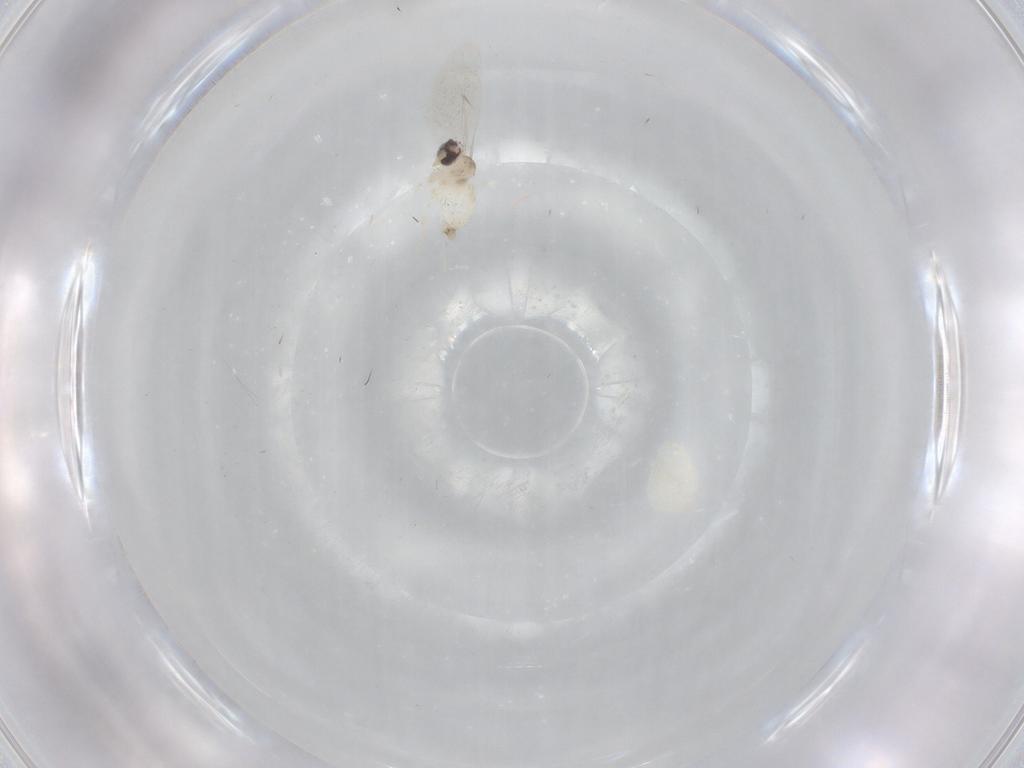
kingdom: Animalia
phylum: Arthropoda
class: Insecta
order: Diptera
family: Cecidomyiidae
